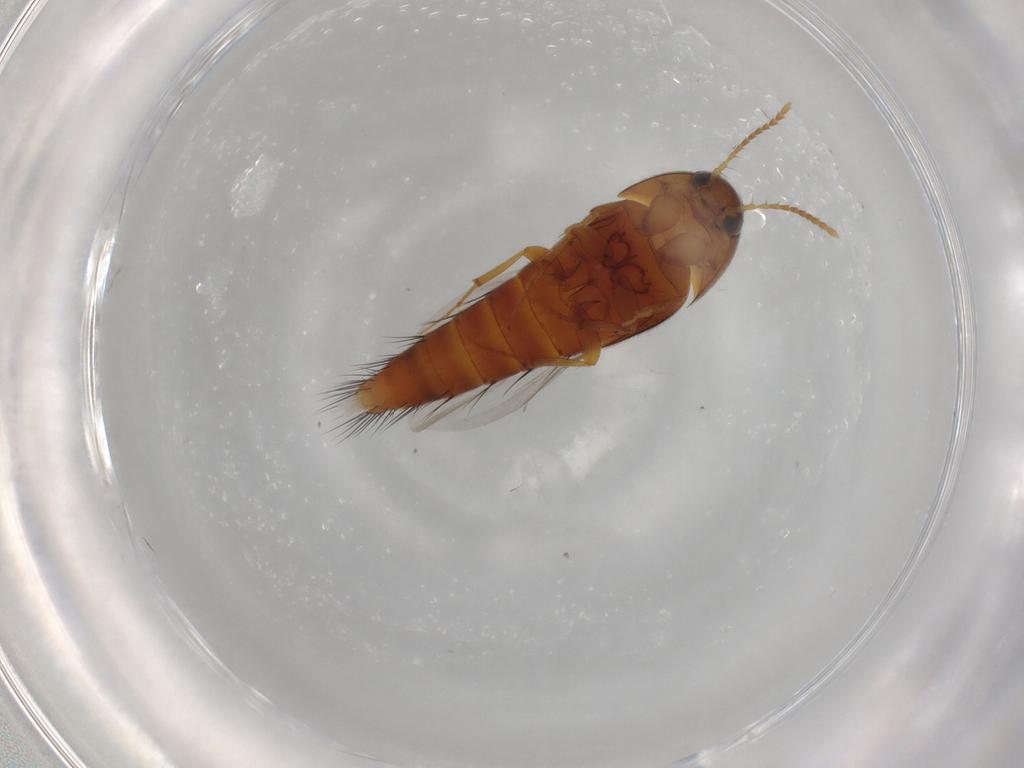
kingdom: Animalia
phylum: Arthropoda
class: Insecta
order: Coleoptera
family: Staphylinidae
